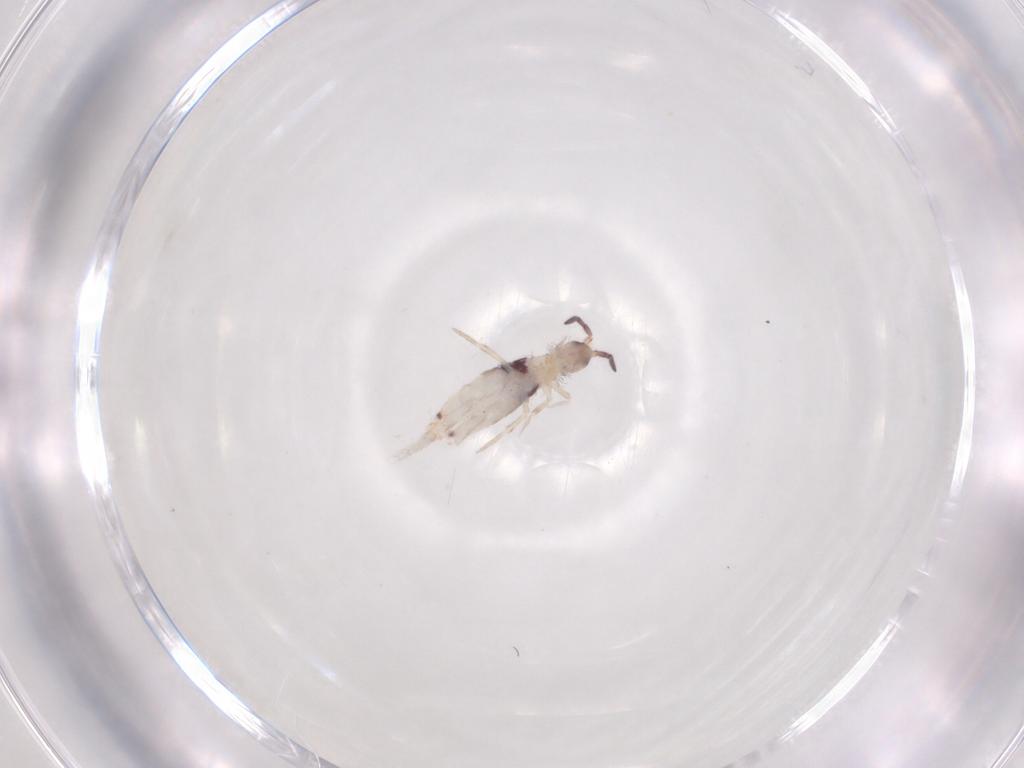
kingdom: Animalia
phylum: Arthropoda
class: Collembola
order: Entomobryomorpha
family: Entomobryidae
